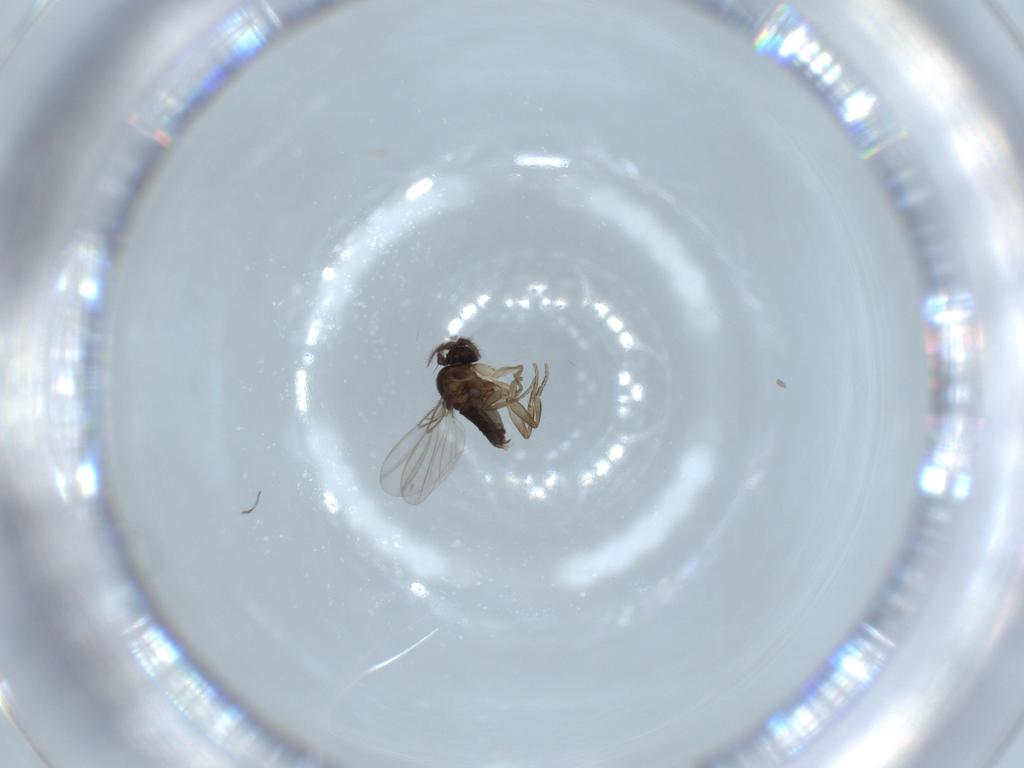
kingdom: Animalia
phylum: Arthropoda
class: Insecta
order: Diptera
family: Phoridae
